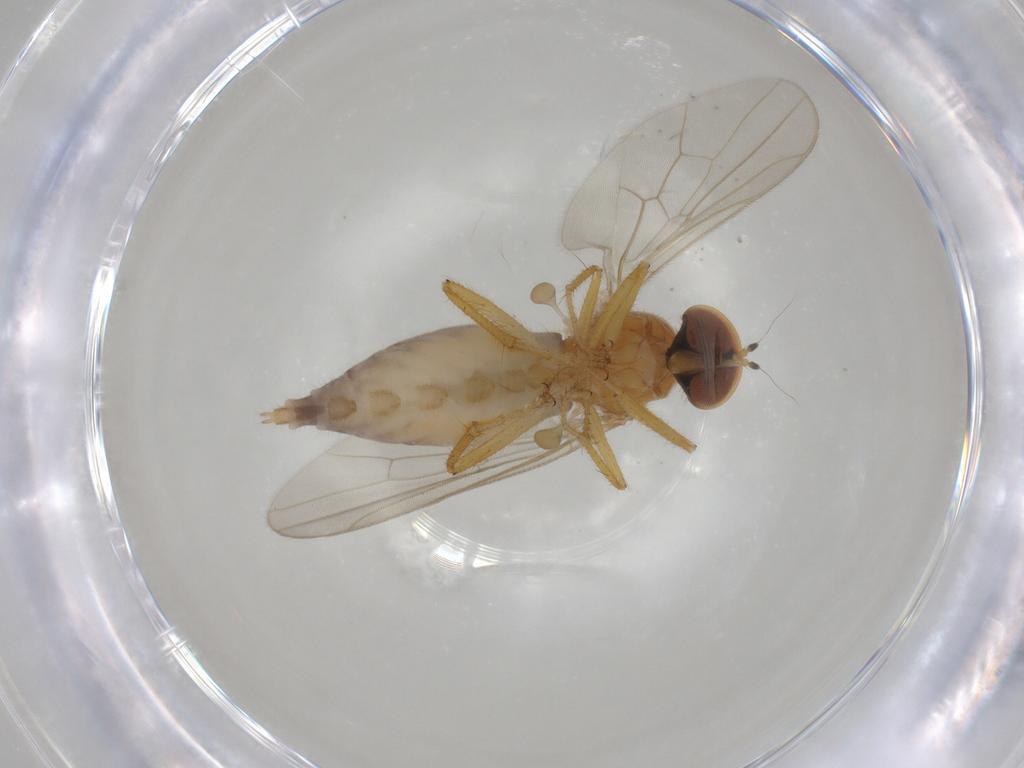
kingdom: Animalia
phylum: Arthropoda
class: Insecta
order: Diptera
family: Hybotidae
